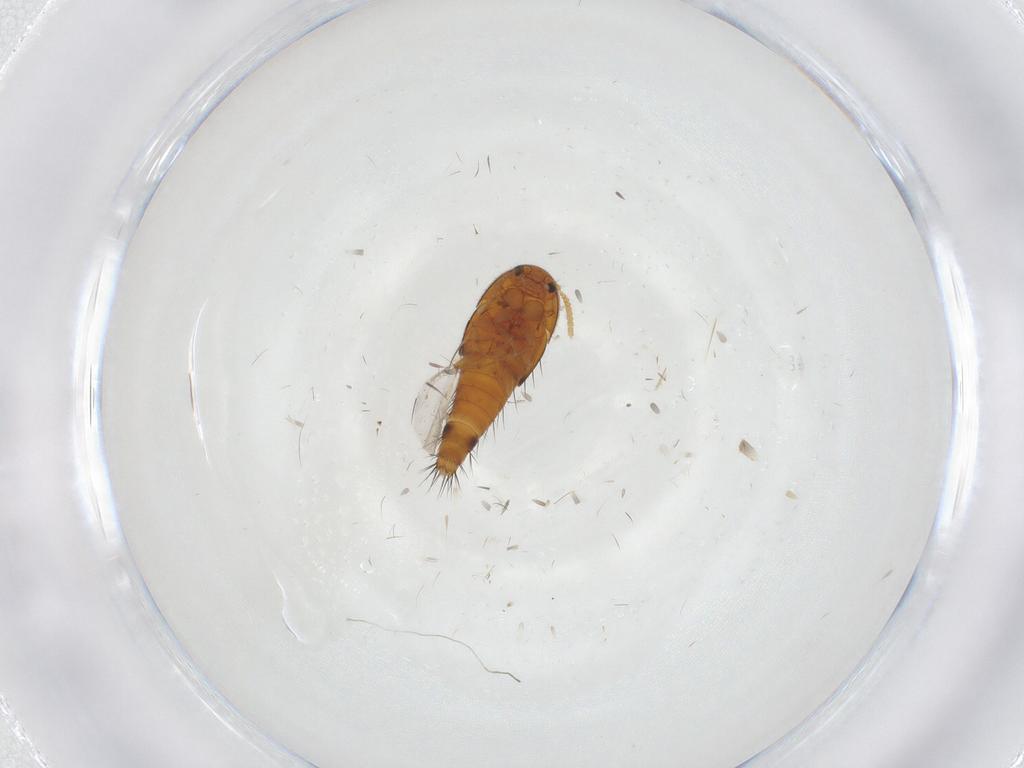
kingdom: Animalia
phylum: Arthropoda
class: Insecta
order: Coleoptera
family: Staphylinidae
